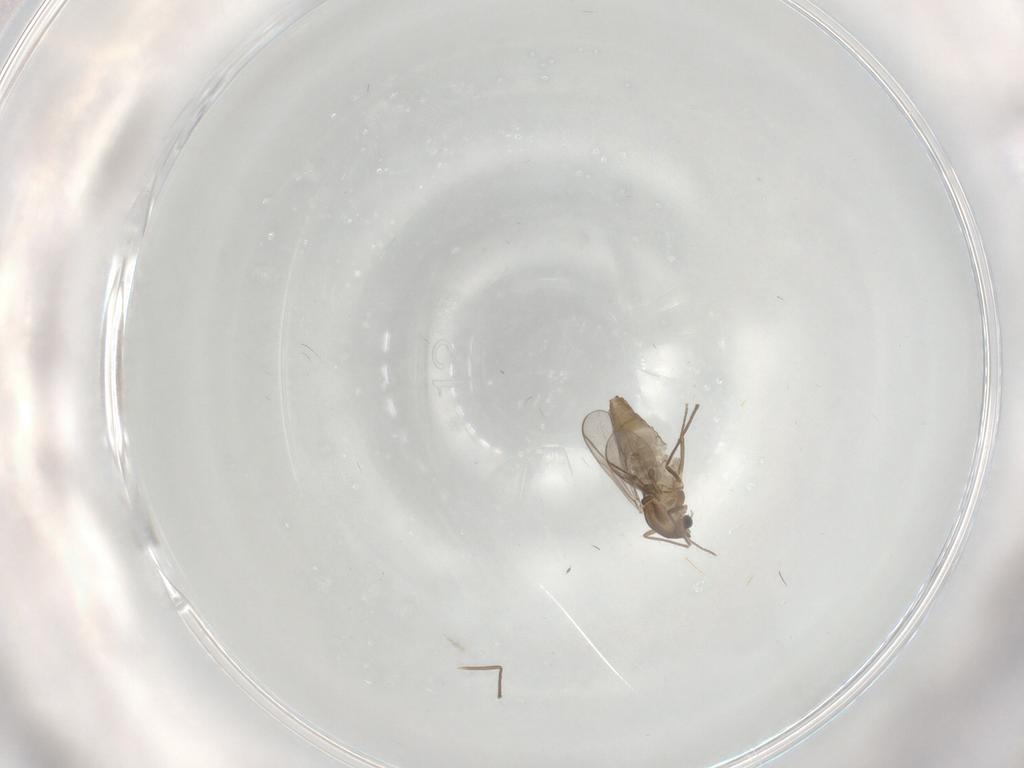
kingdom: Animalia
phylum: Arthropoda
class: Insecta
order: Diptera
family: Chironomidae
